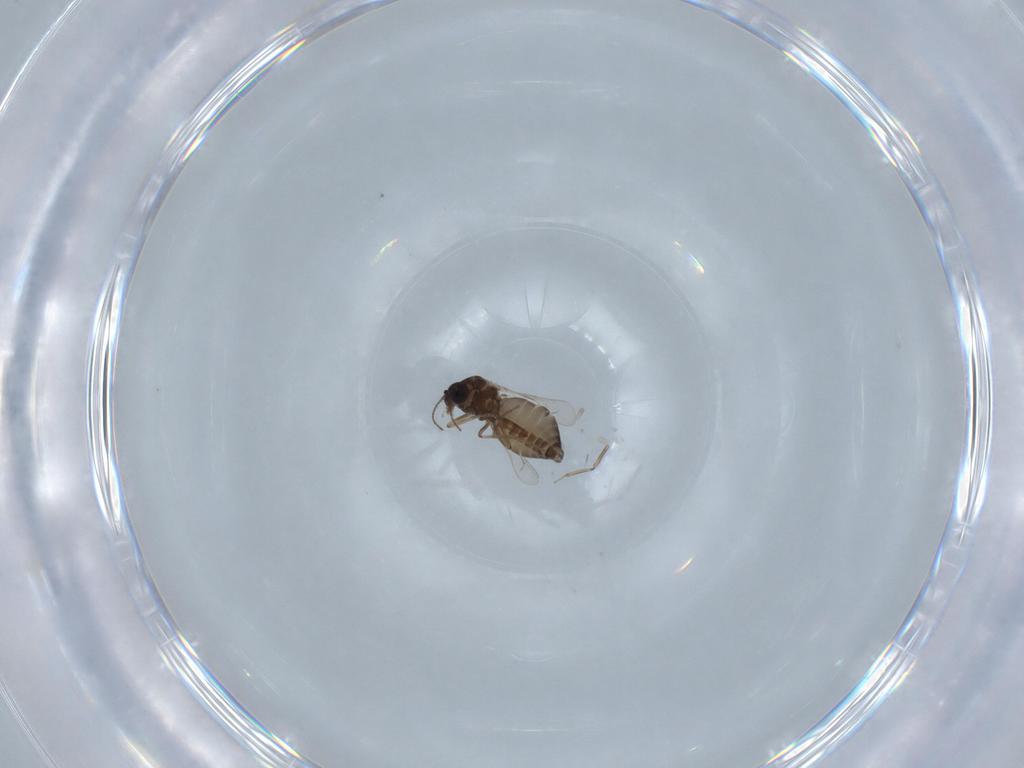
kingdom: Animalia
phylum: Arthropoda
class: Insecta
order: Diptera
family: Ceratopogonidae
